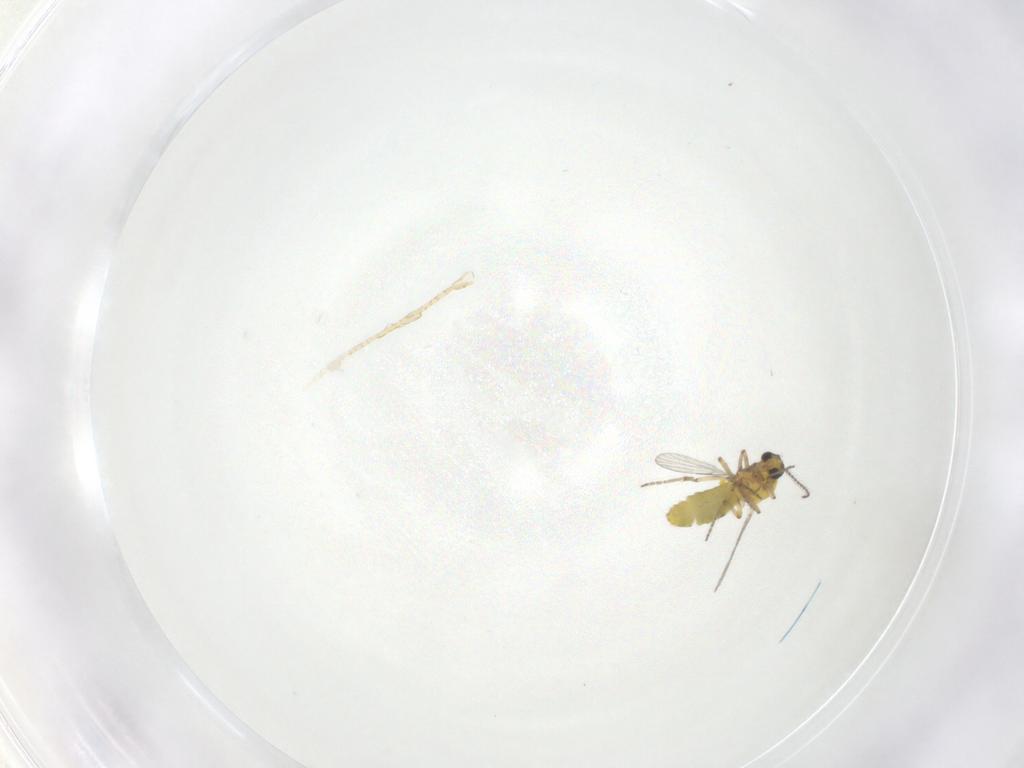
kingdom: Animalia
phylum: Arthropoda
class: Insecta
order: Diptera
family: Ceratopogonidae
